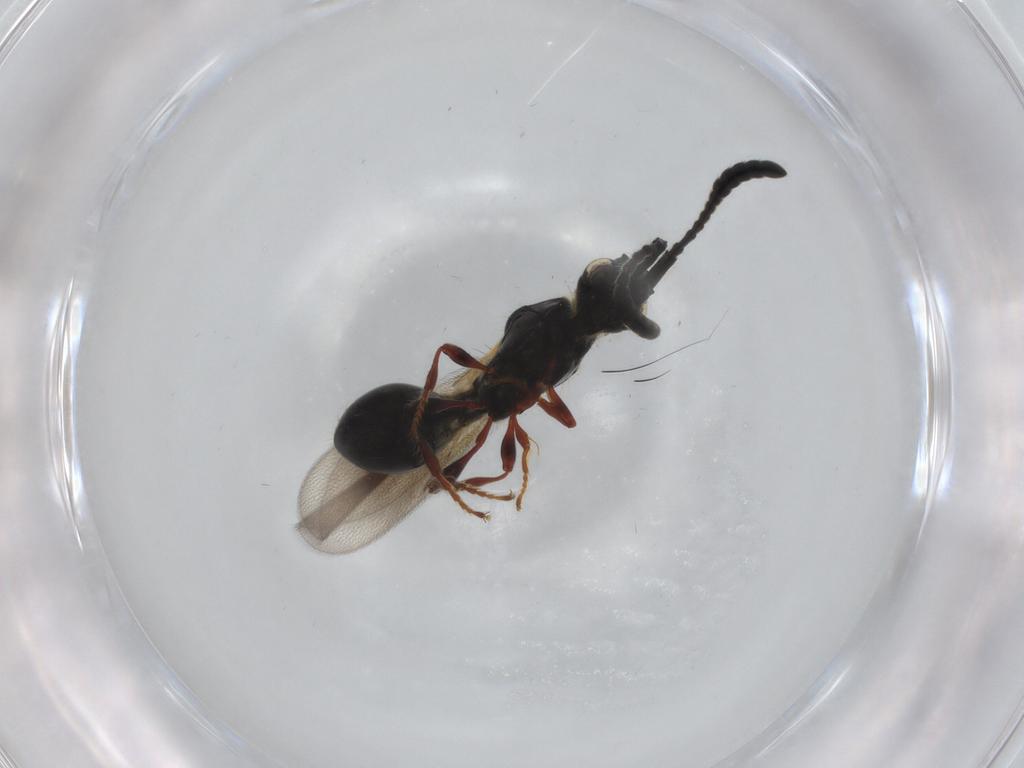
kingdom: Animalia
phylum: Arthropoda
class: Insecta
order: Hymenoptera
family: Diapriidae
